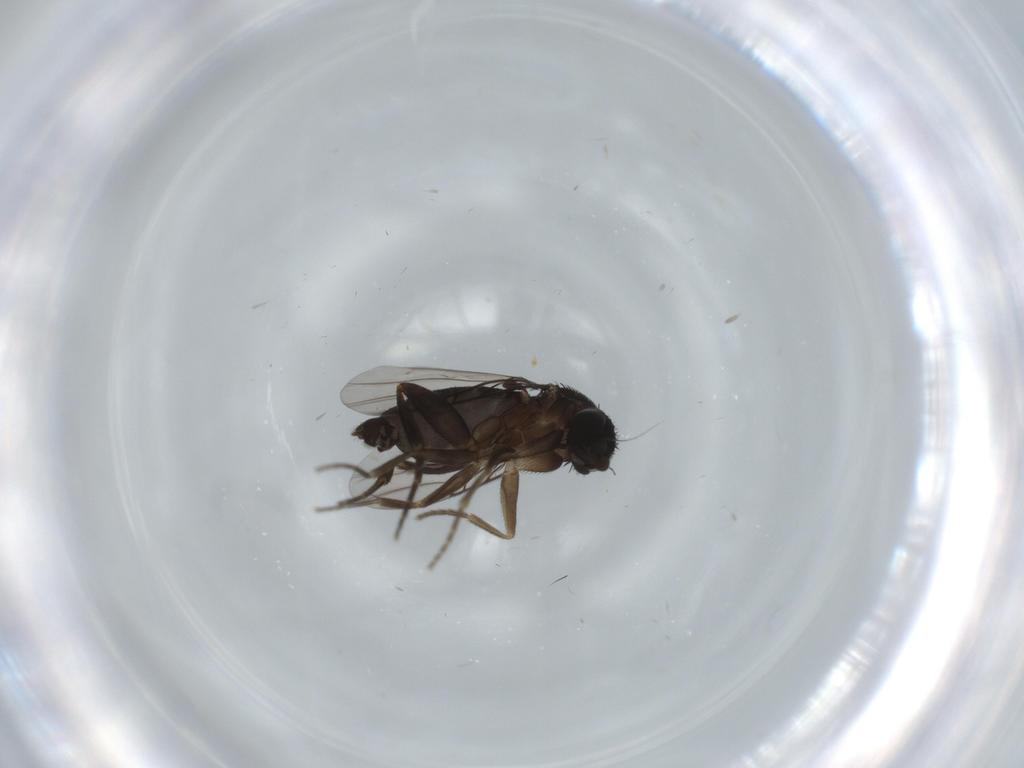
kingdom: Animalia
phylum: Arthropoda
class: Insecta
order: Diptera
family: Phoridae
